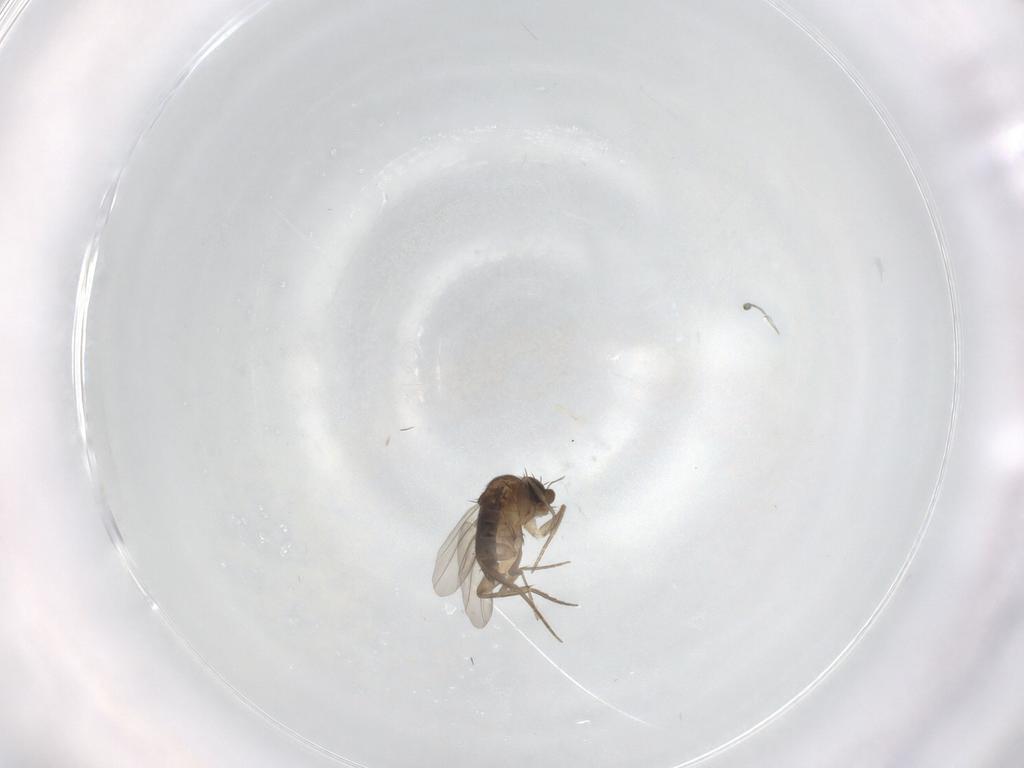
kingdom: Animalia
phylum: Arthropoda
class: Insecta
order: Diptera
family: Phoridae
